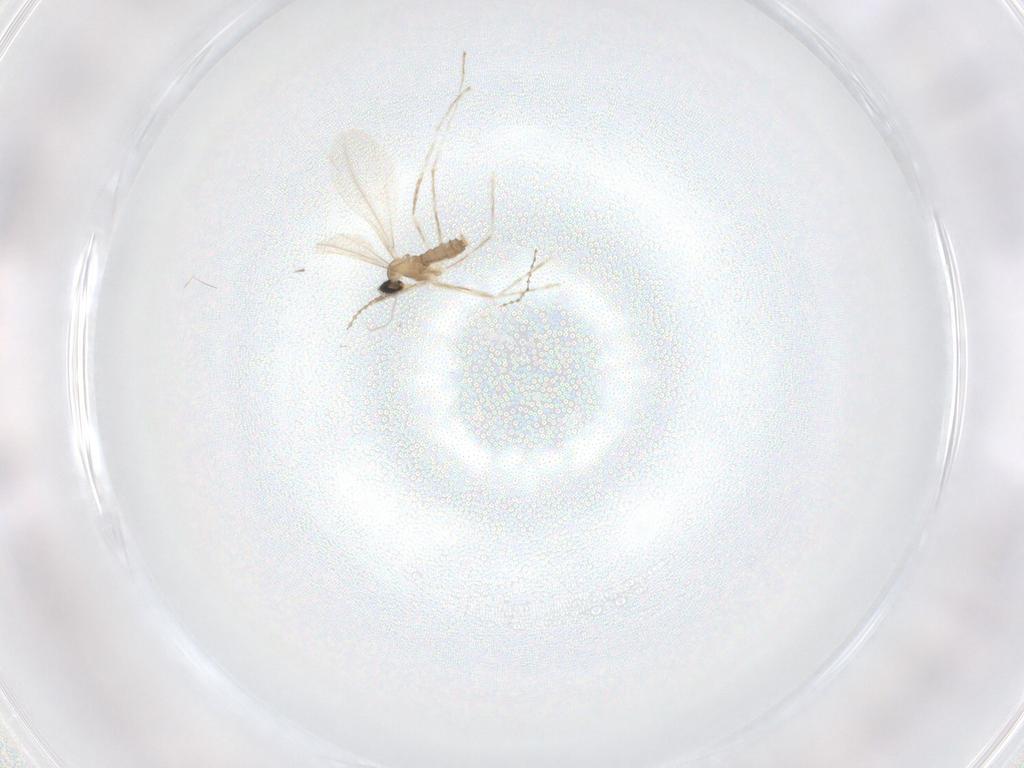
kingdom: Animalia
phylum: Arthropoda
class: Insecta
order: Diptera
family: Cecidomyiidae
